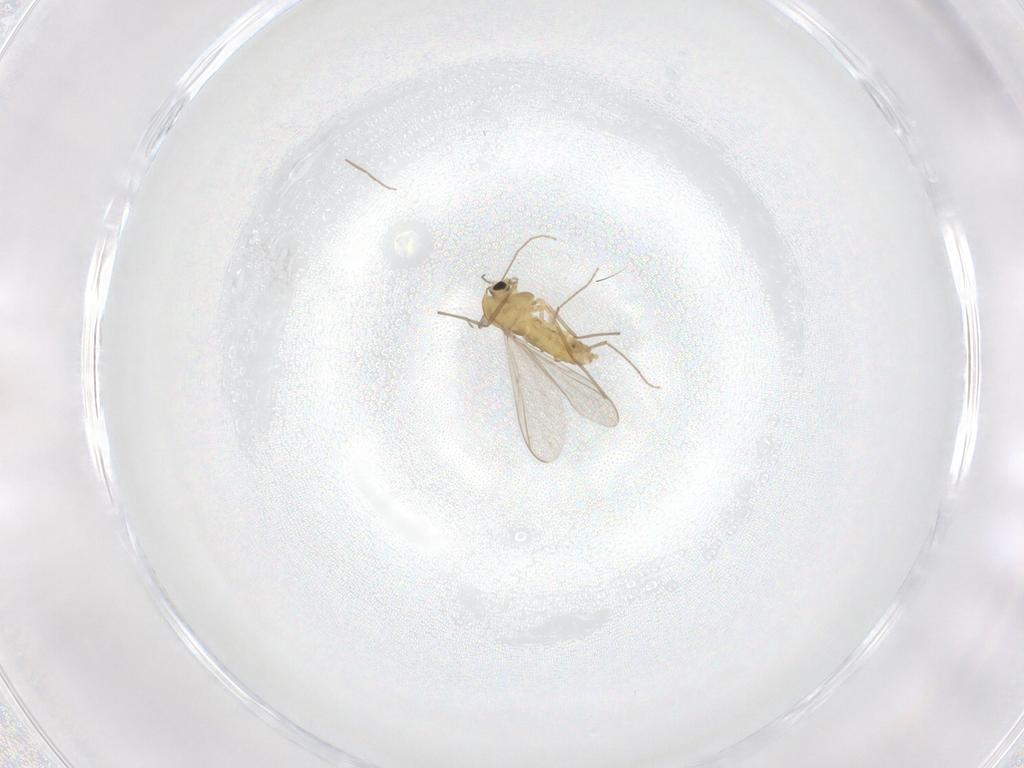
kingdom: Animalia
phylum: Arthropoda
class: Insecta
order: Diptera
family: Chironomidae
